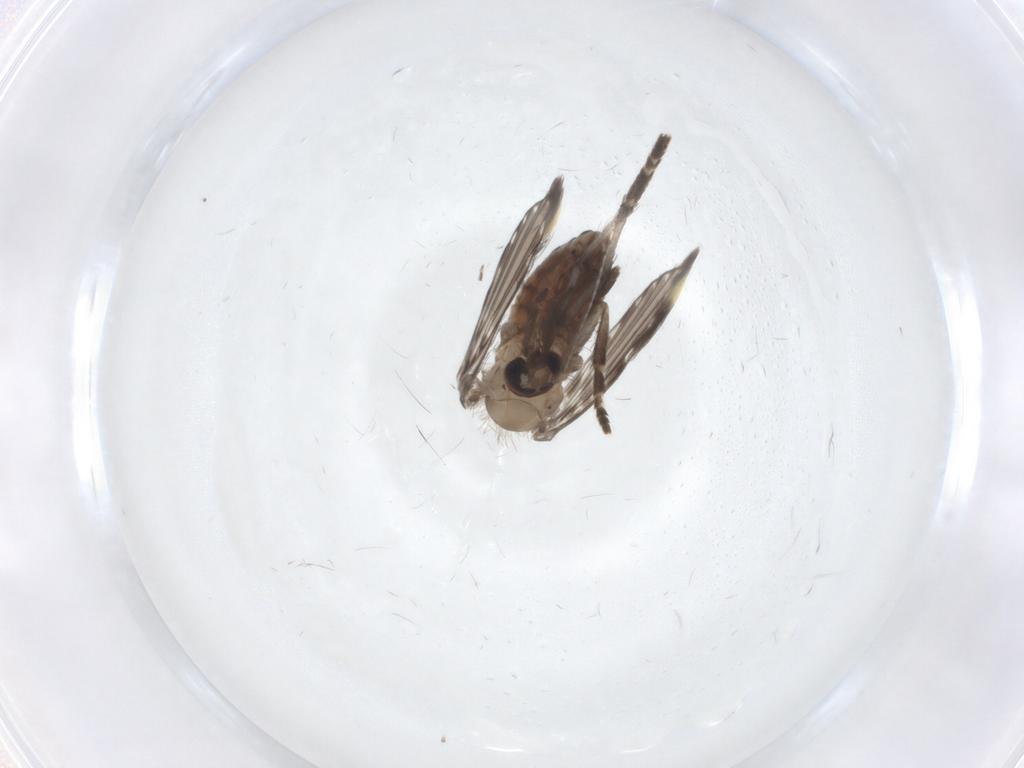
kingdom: Animalia
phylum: Arthropoda
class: Insecta
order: Diptera
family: Psychodidae
